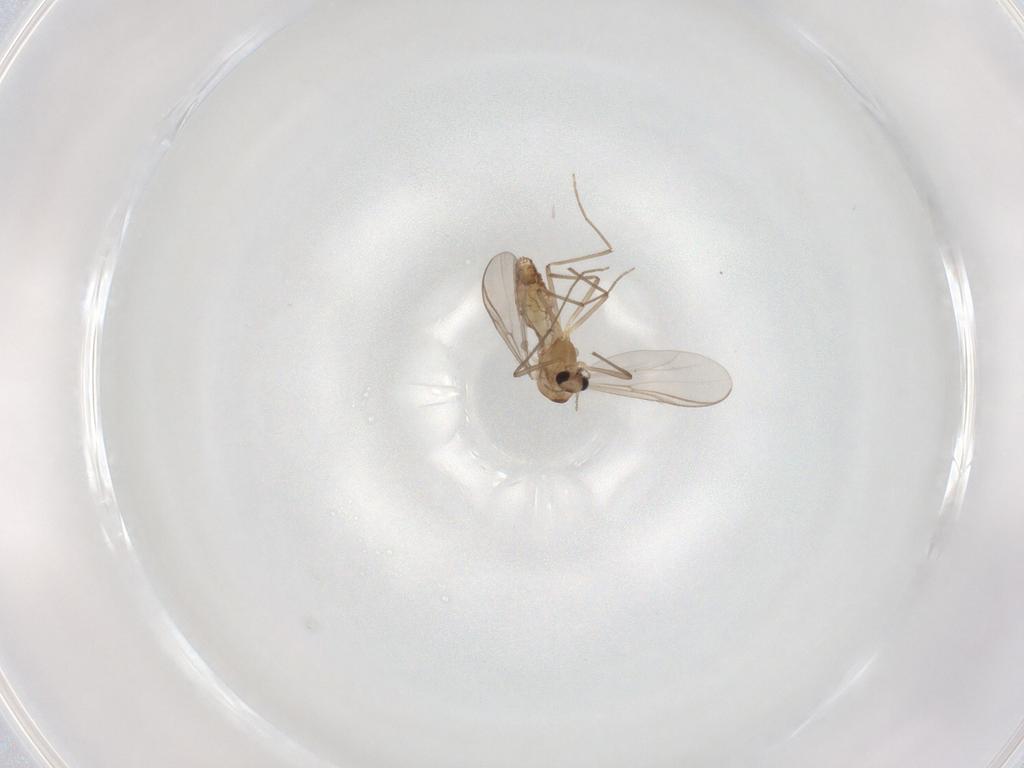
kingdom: Animalia
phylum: Arthropoda
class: Insecta
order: Diptera
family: Chironomidae
